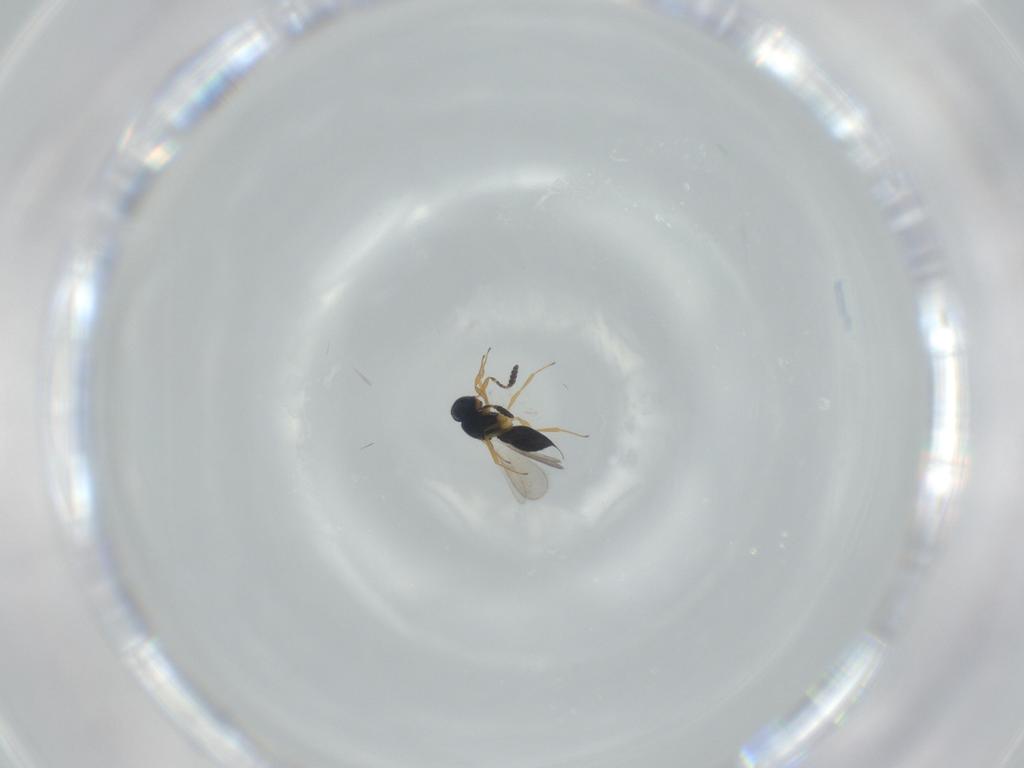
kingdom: Animalia
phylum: Arthropoda
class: Insecta
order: Hymenoptera
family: Scelionidae
